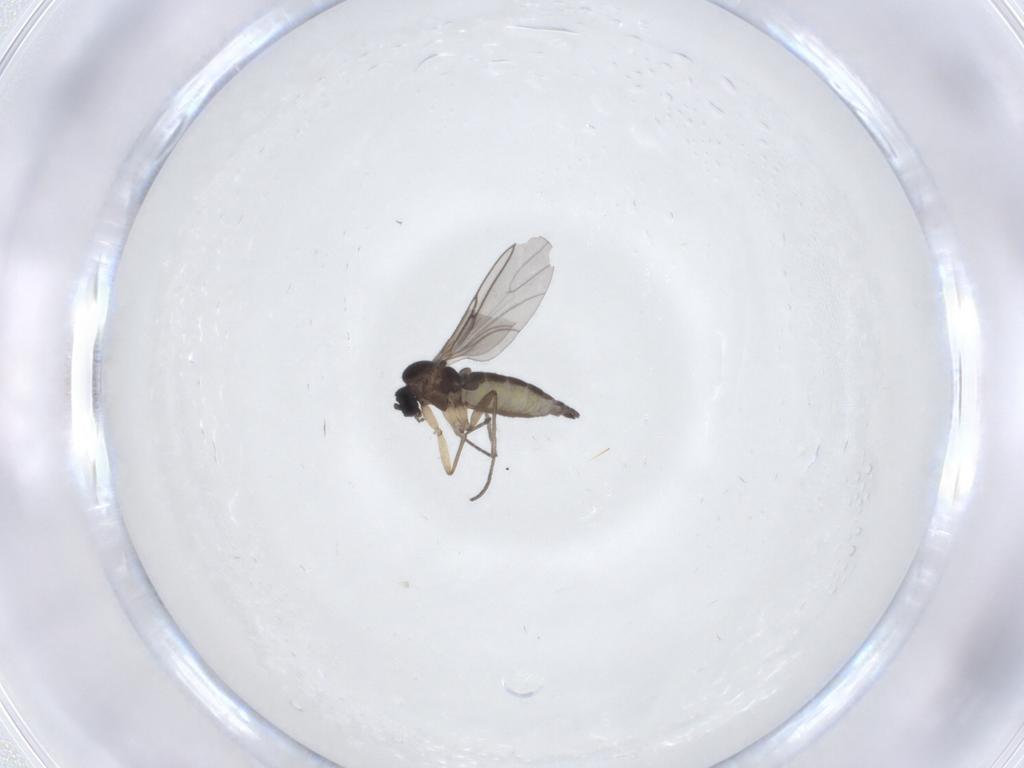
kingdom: Animalia
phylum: Arthropoda
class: Insecta
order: Diptera
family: Sciaridae
